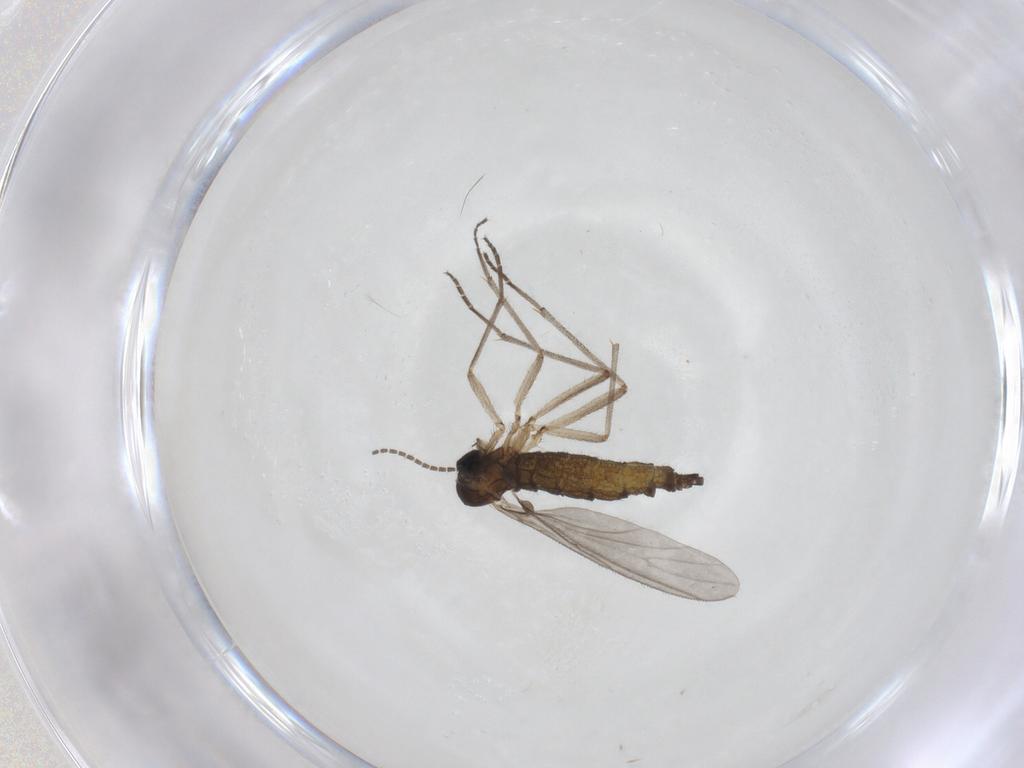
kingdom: Animalia
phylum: Arthropoda
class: Insecta
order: Diptera
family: Sciaridae
